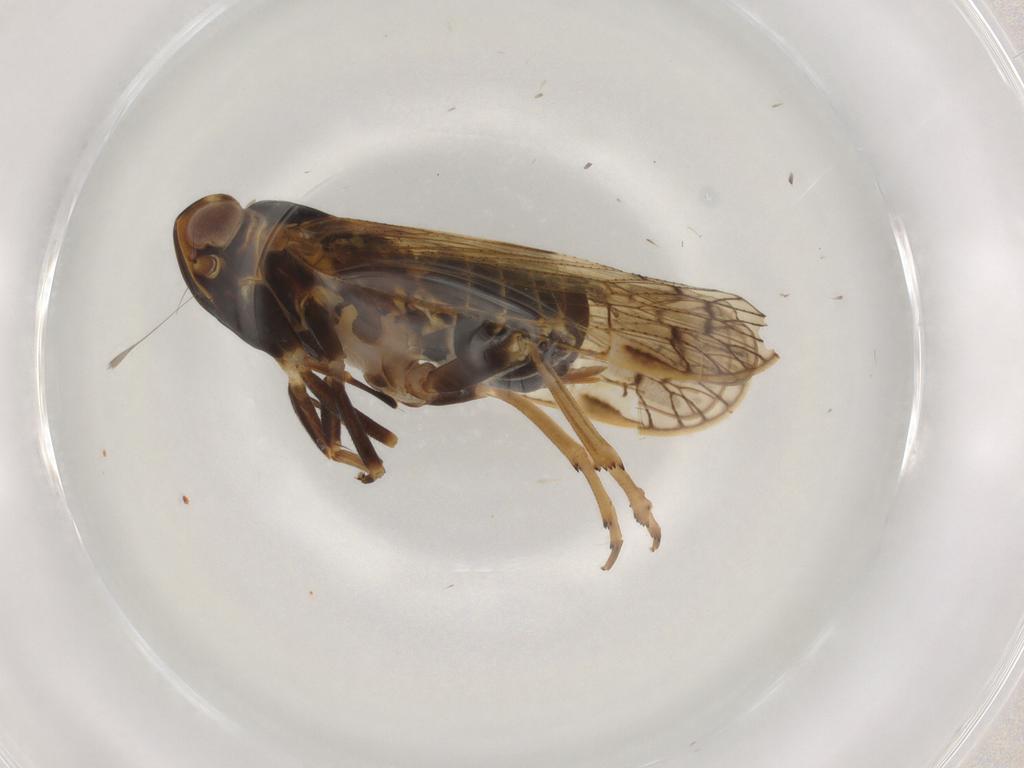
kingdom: Animalia
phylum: Arthropoda
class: Insecta
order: Hemiptera
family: Cixiidae
